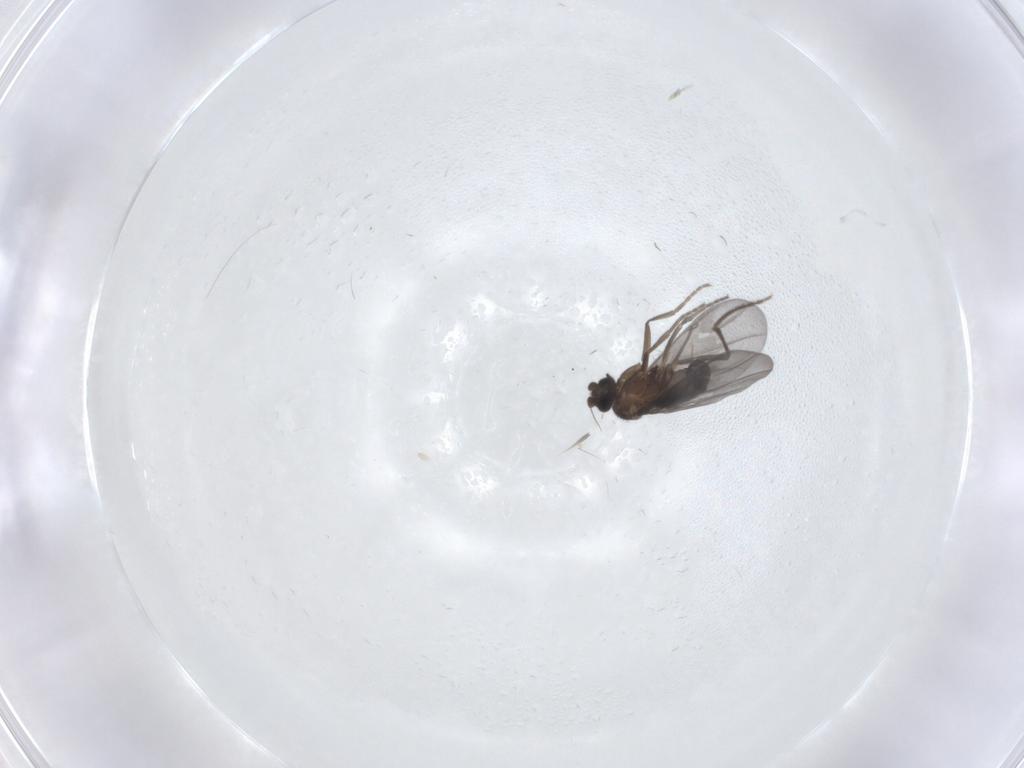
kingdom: Animalia
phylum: Arthropoda
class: Insecta
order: Diptera
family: Phoridae
